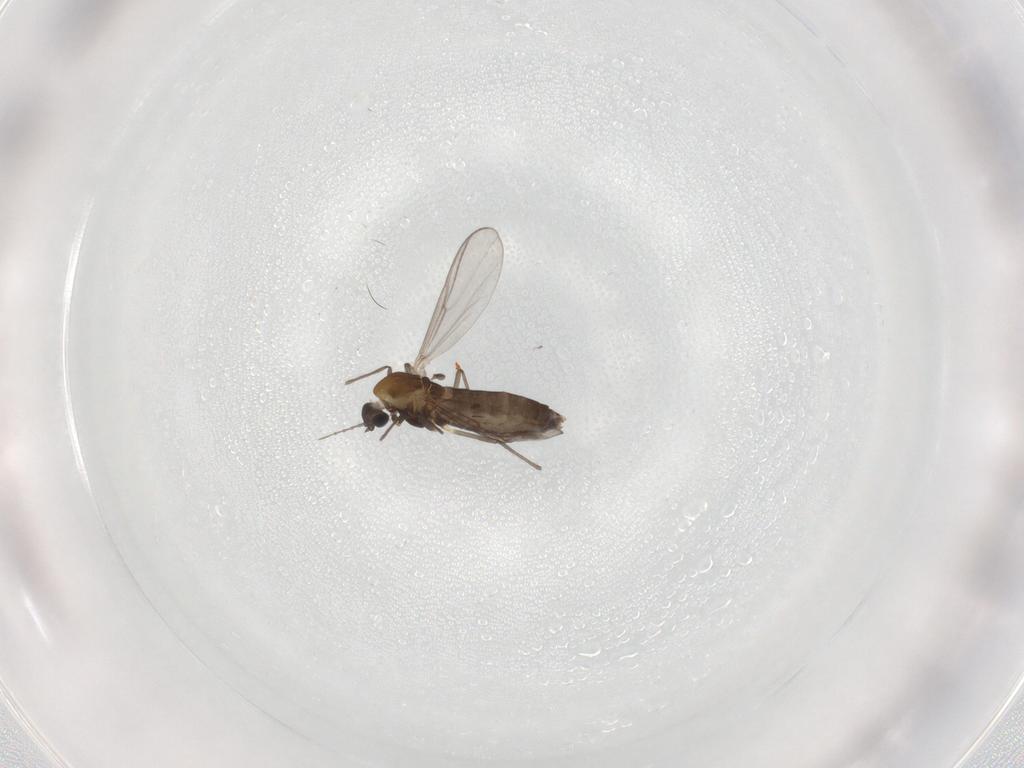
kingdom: Animalia
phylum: Arthropoda
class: Insecta
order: Diptera
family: Chironomidae
